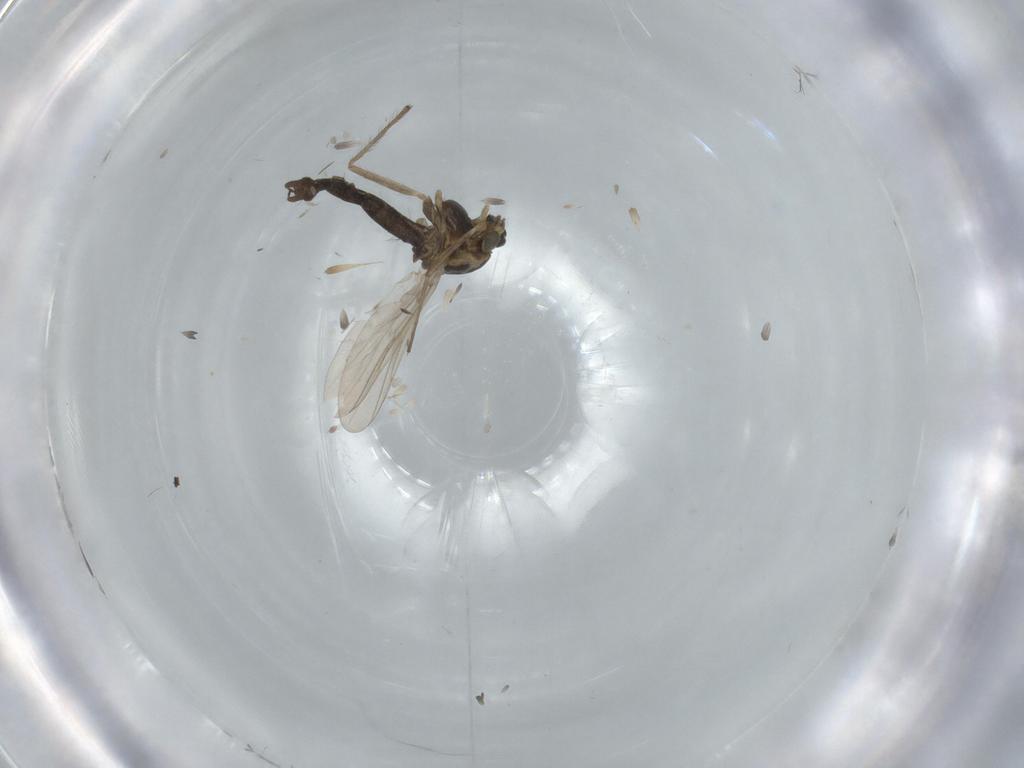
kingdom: Animalia
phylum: Arthropoda
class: Insecta
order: Diptera
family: Chironomidae
